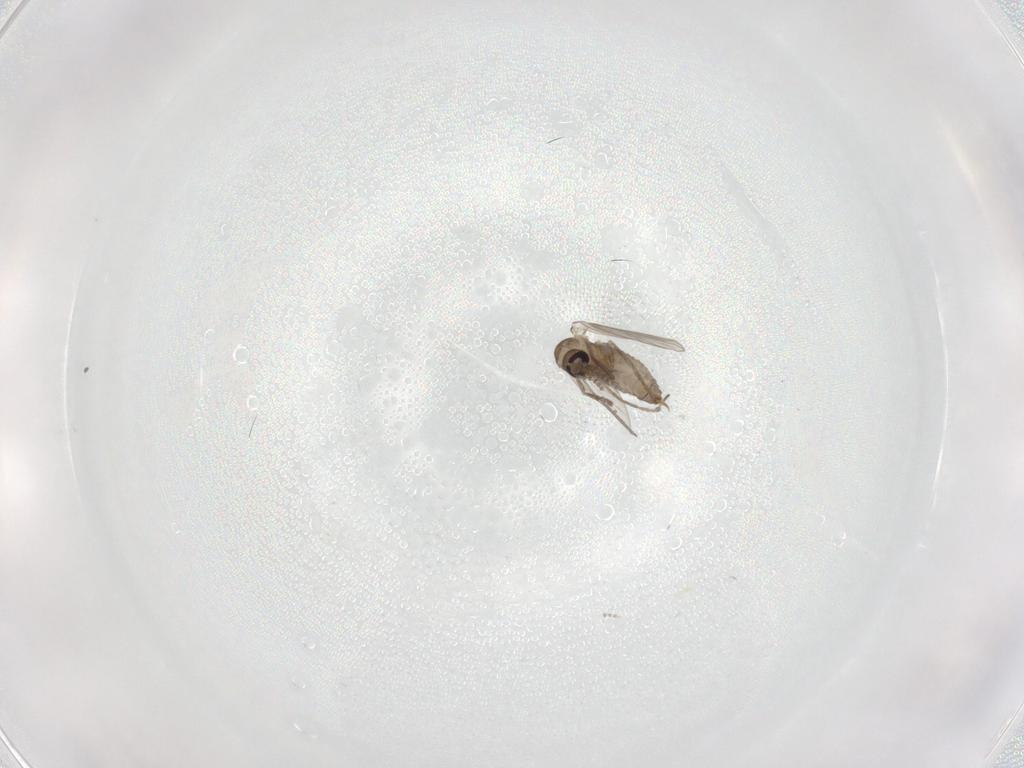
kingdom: Animalia
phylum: Arthropoda
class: Insecta
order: Diptera
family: Psychodidae
